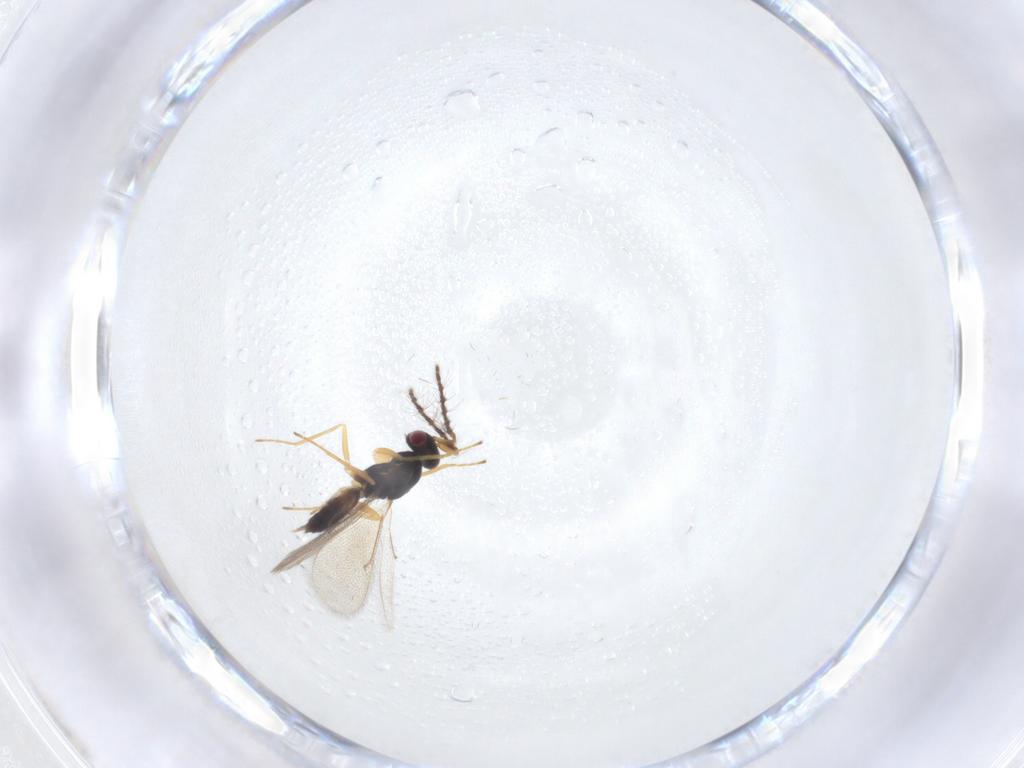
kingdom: Animalia
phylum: Arthropoda
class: Insecta
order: Hymenoptera
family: Eulophidae
